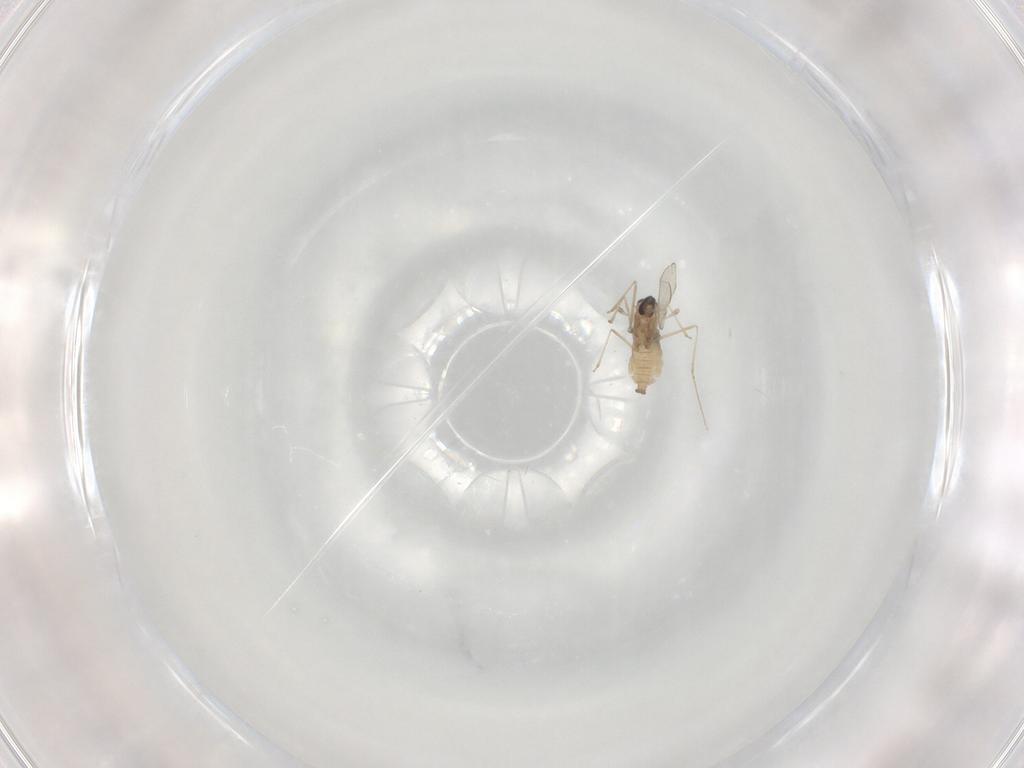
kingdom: Animalia
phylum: Arthropoda
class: Insecta
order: Diptera
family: Cecidomyiidae
